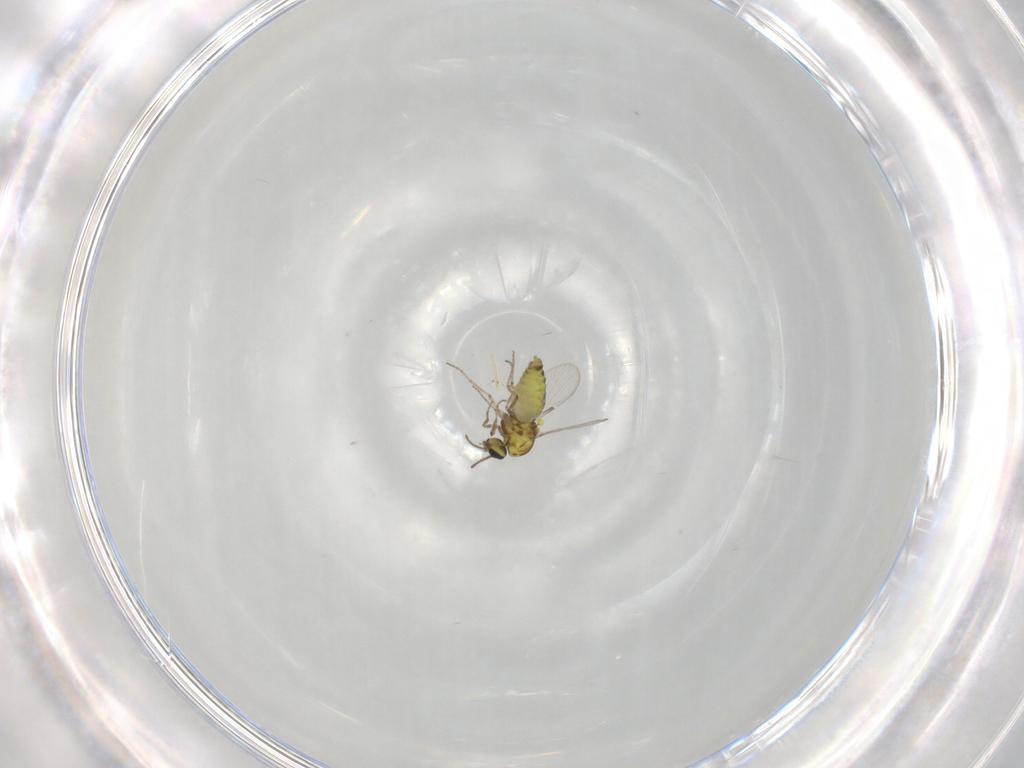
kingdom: Animalia
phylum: Arthropoda
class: Insecta
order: Diptera
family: Ceratopogonidae
